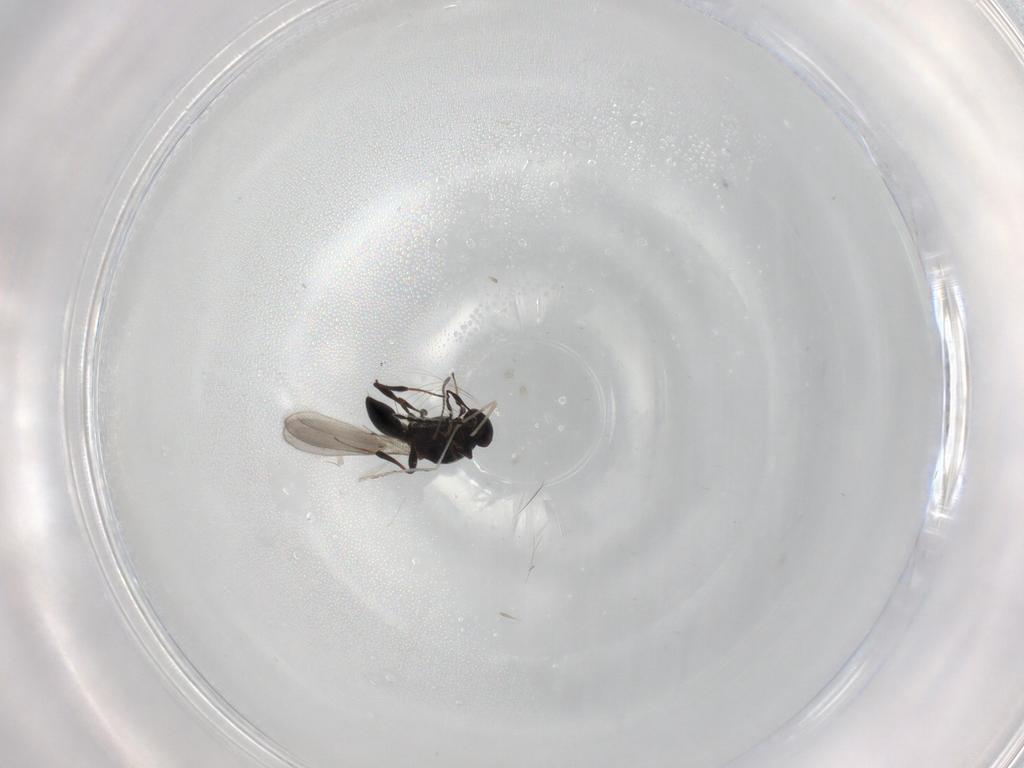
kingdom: Animalia
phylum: Arthropoda
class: Insecta
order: Hymenoptera
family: Platygastridae
